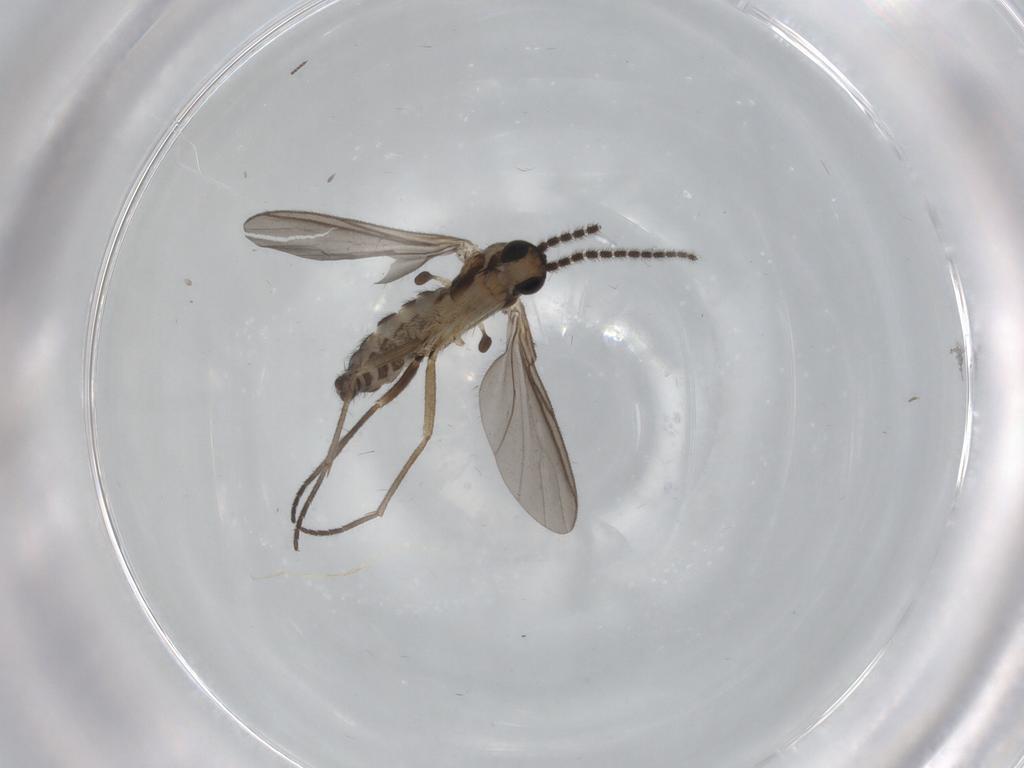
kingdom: Animalia
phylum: Arthropoda
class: Insecta
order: Diptera
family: Sciaridae
